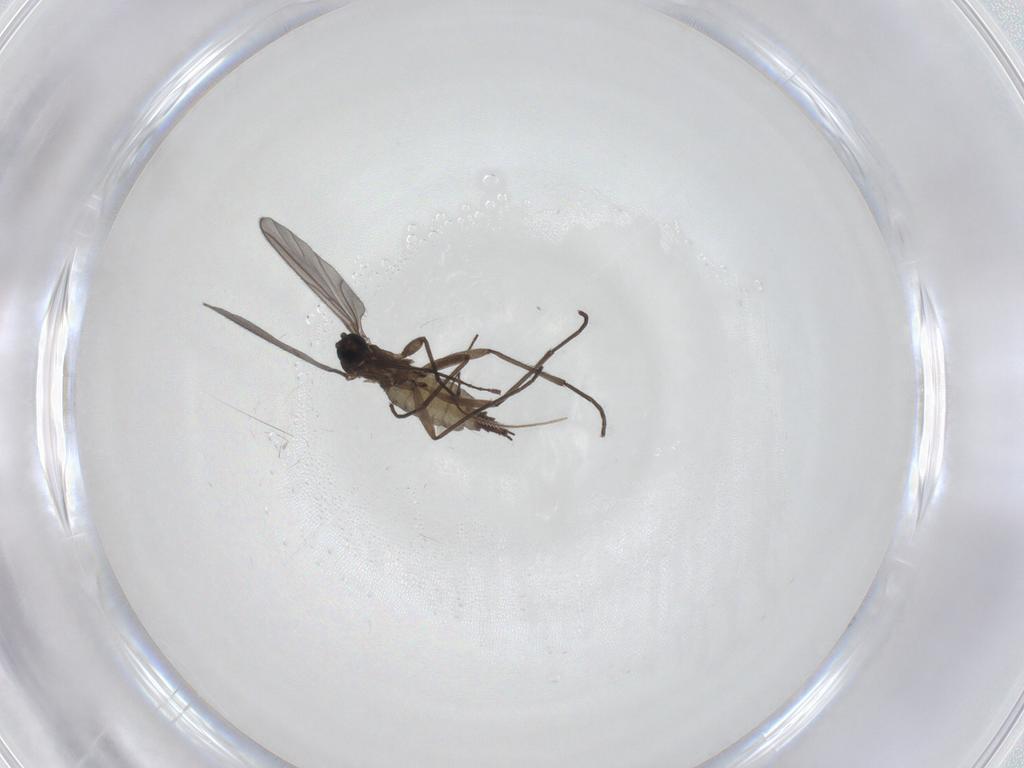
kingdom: Animalia
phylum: Arthropoda
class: Insecta
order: Diptera
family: Sciaridae
